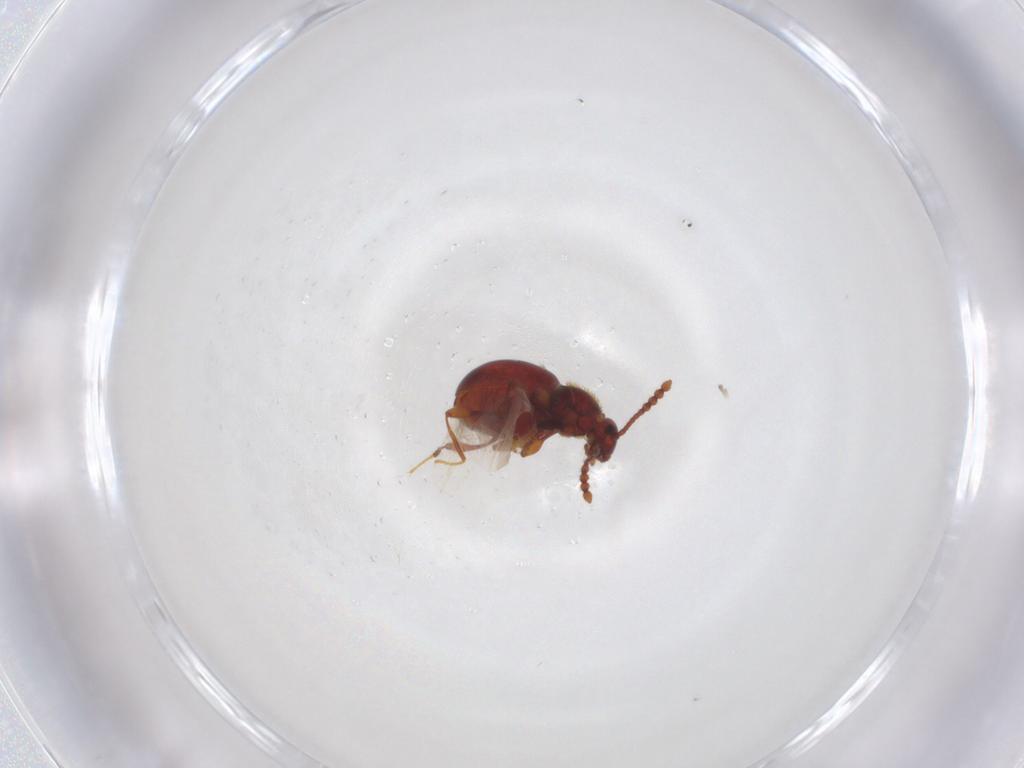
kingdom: Animalia
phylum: Arthropoda
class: Insecta
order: Coleoptera
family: Staphylinidae
